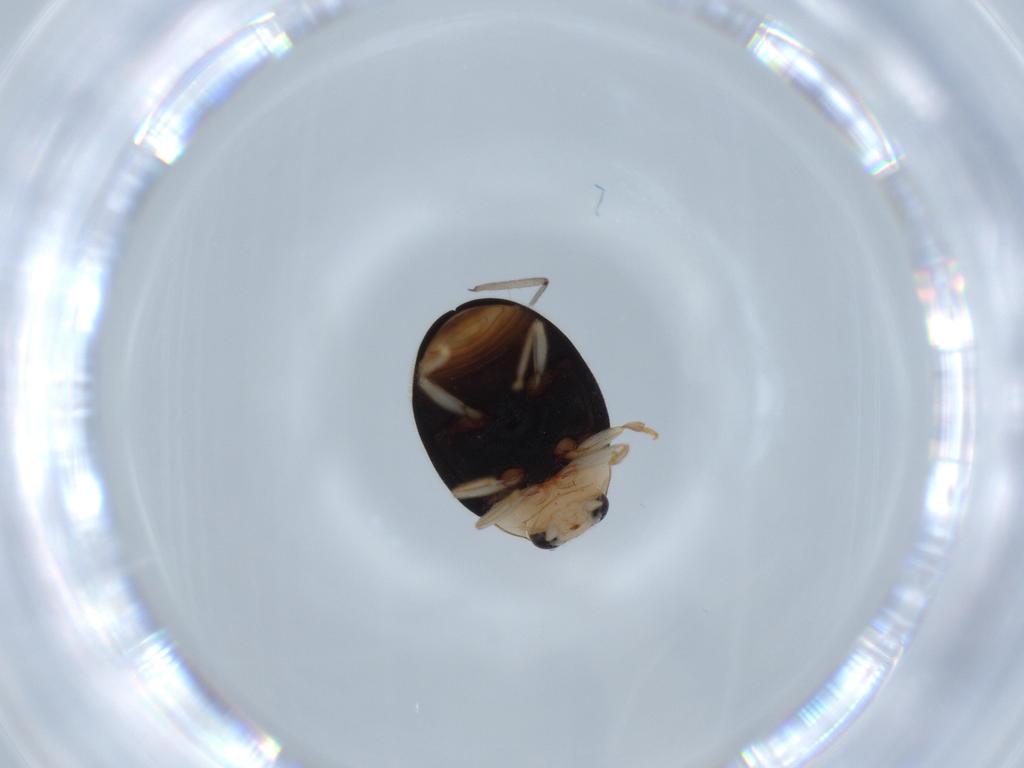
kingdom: Animalia
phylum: Arthropoda
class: Insecta
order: Coleoptera
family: Coccinellidae
